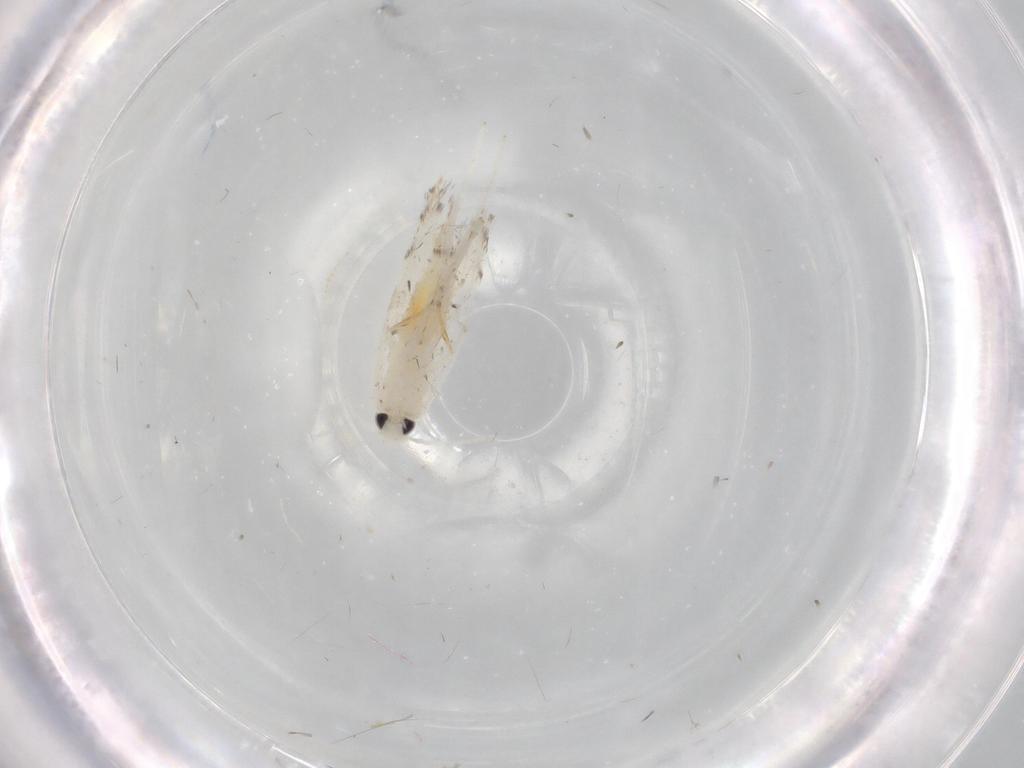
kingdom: Animalia
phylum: Arthropoda
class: Insecta
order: Lepidoptera
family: Gracillariidae
